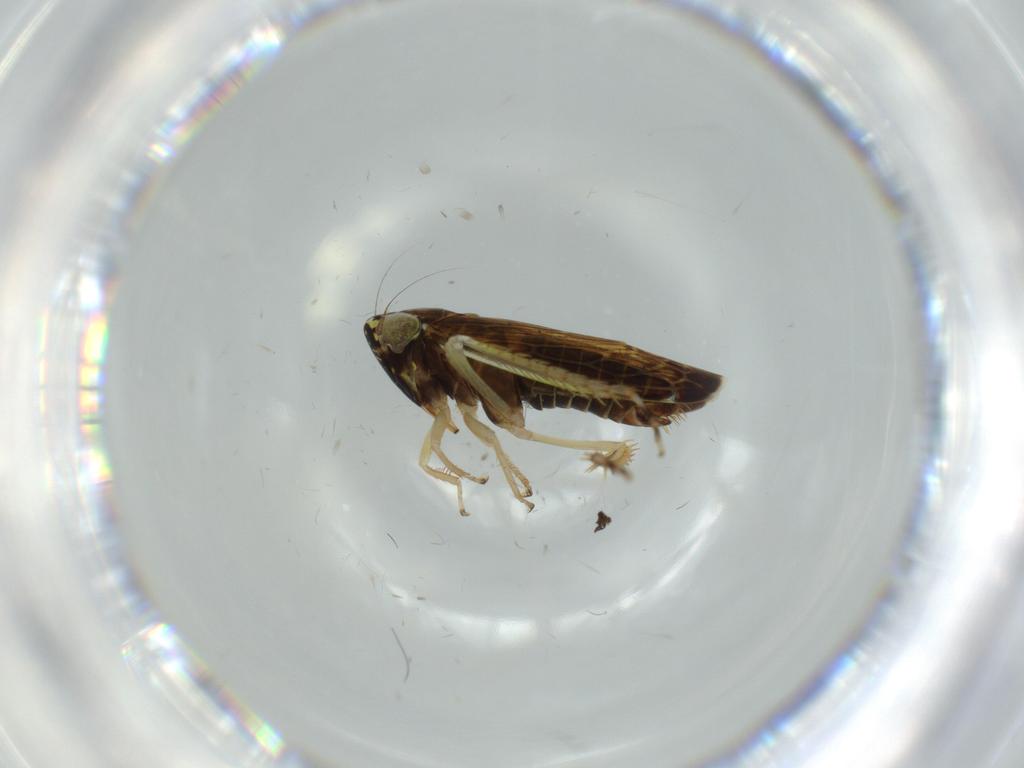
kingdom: Animalia
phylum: Arthropoda
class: Insecta
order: Hemiptera
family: Cicadellidae
